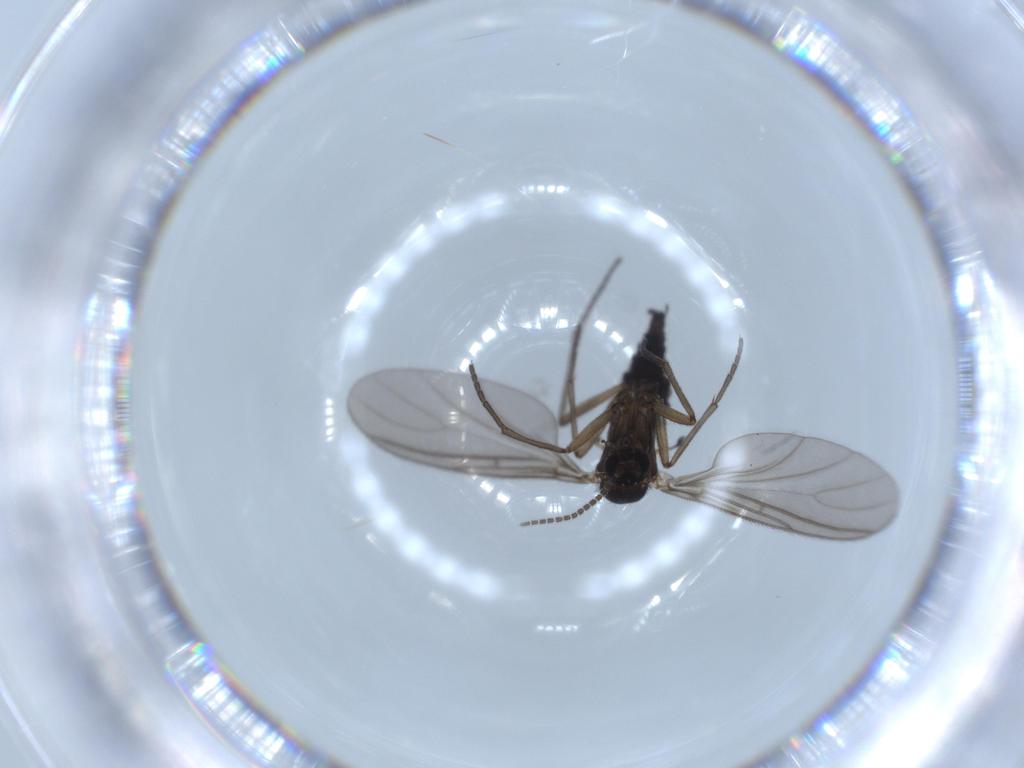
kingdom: Animalia
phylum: Arthropoda
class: Insecta
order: Diptera
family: Sciaridae
